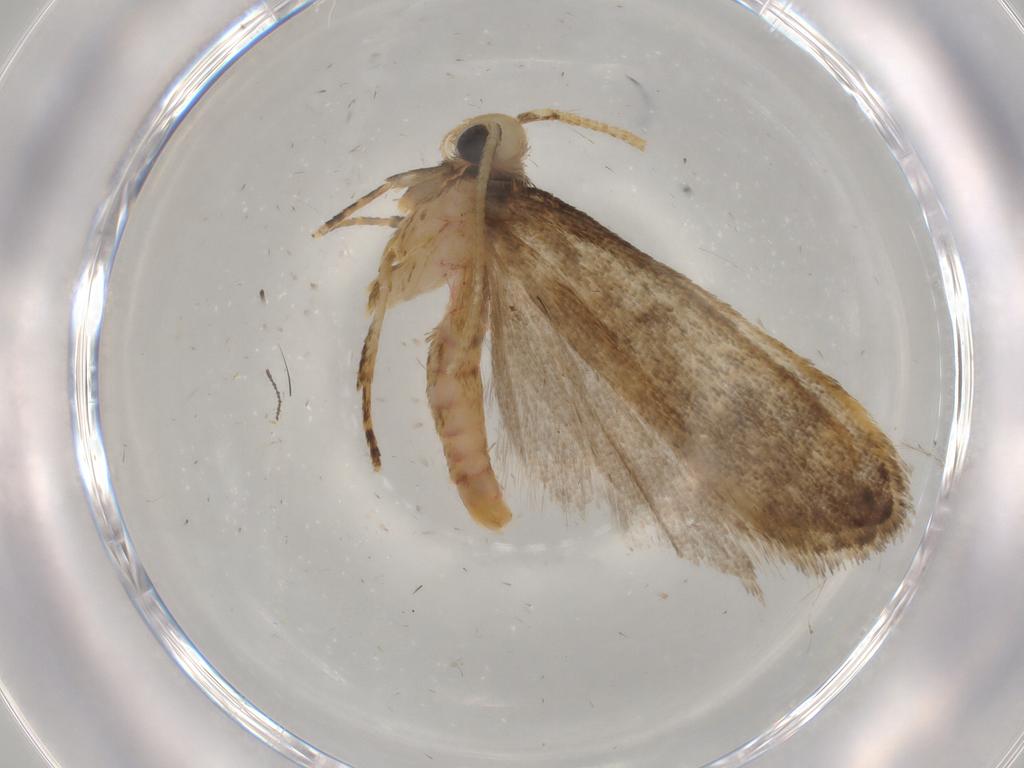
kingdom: Animalia
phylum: Arthropoda
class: Insecta
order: Lepidoptera
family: Autostichidae
